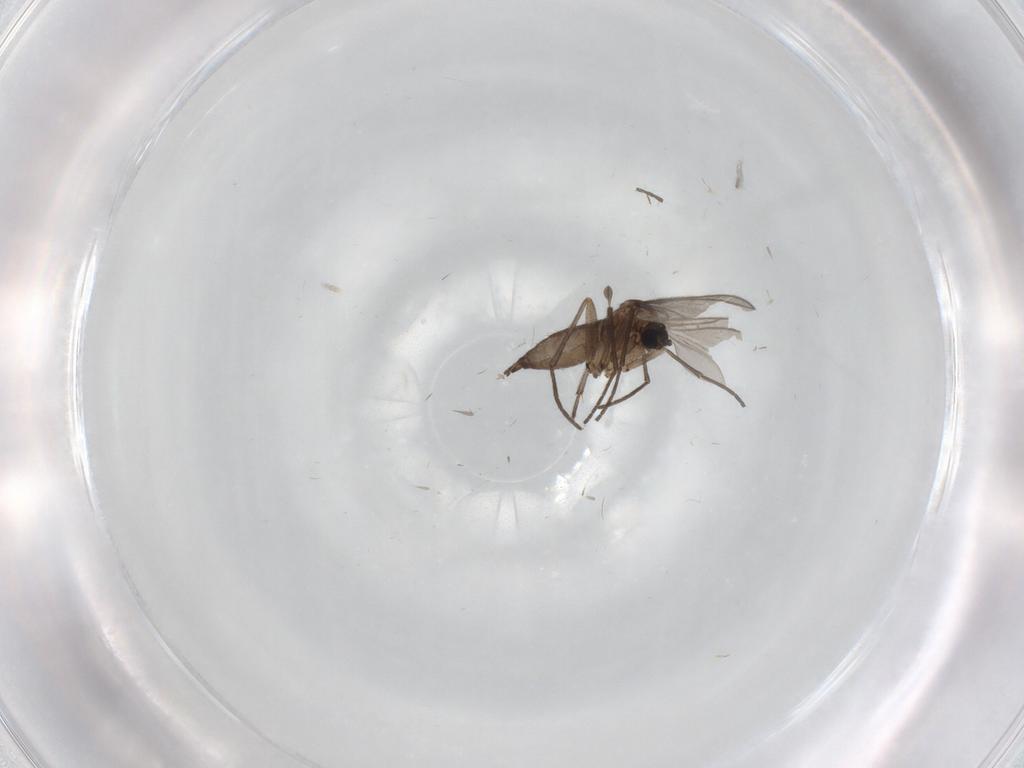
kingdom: Animalia
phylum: Arthropoda
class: Insecta
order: Diptera
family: Sciaridae
